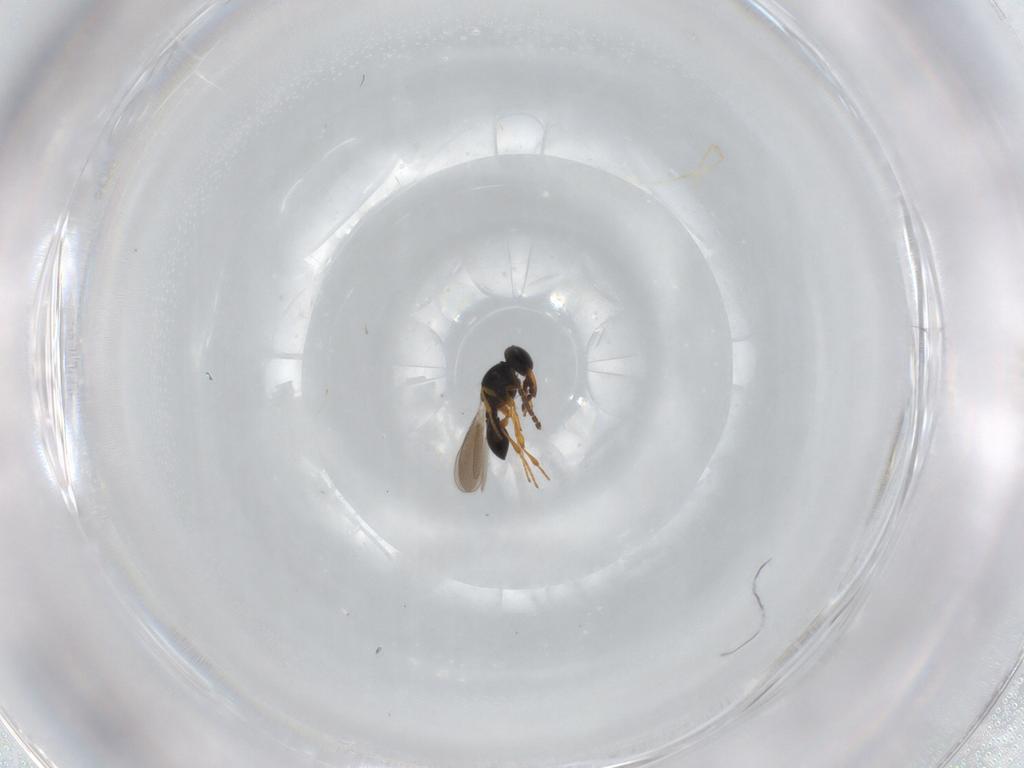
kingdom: Animalia
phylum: Arthropoda
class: Insecta
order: Hymenoptera
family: Platygastridae
